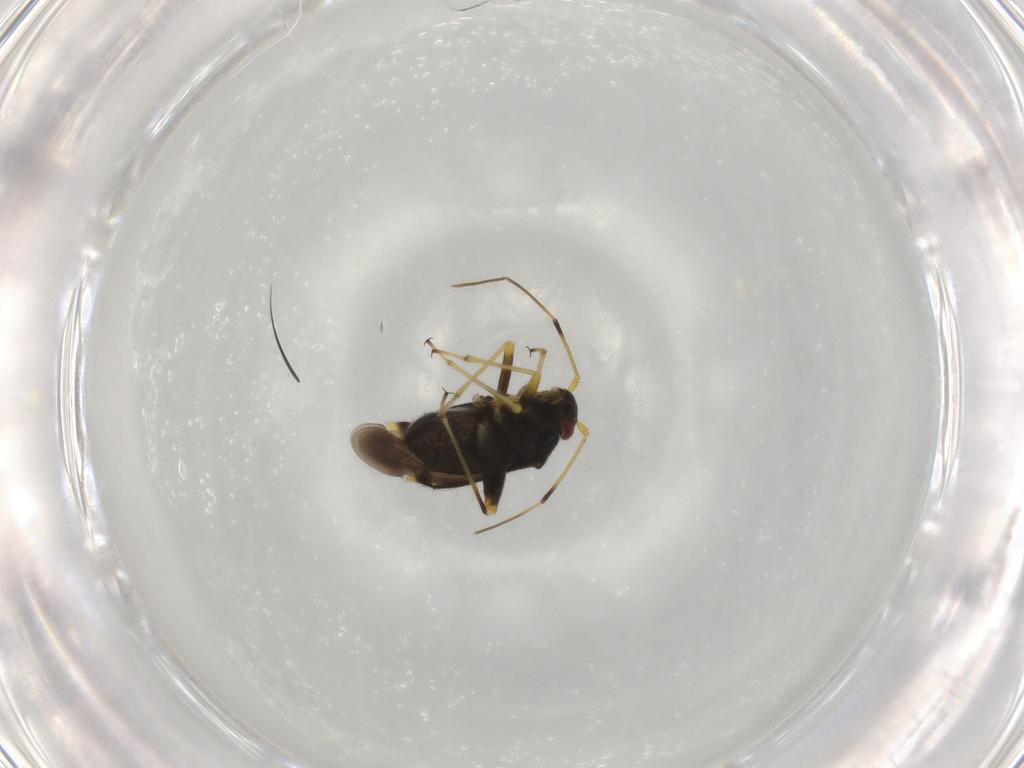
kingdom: Animalia
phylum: Arthropoda
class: Insecta
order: Hemiptera
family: Miridae
